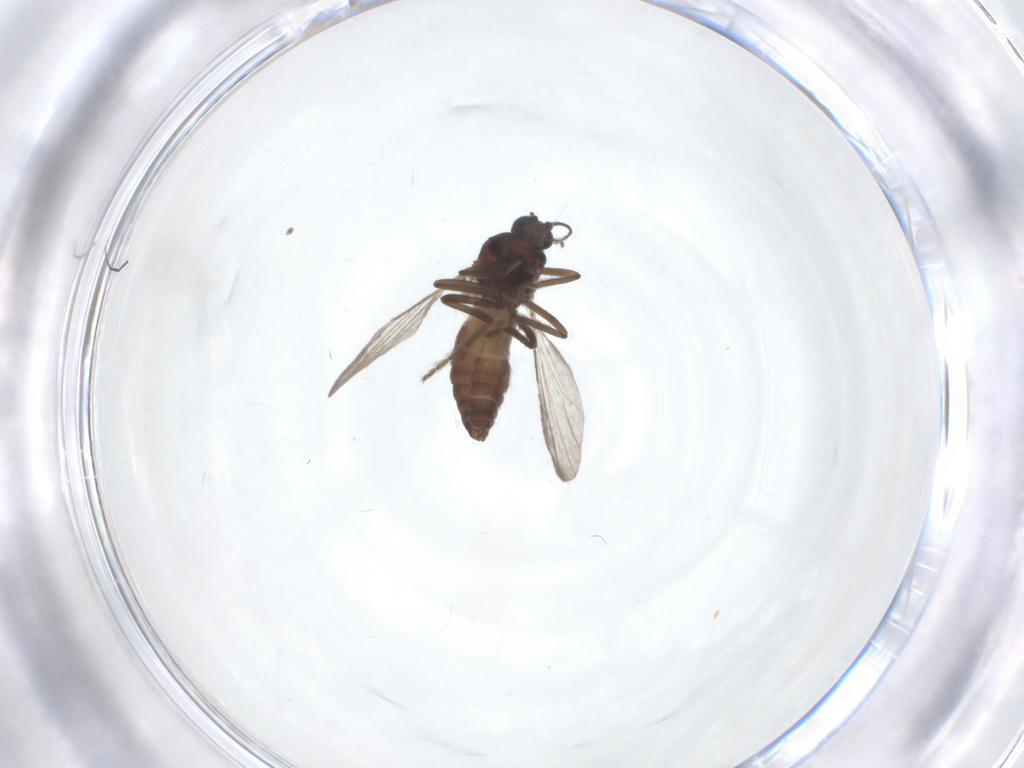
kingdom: Animalia
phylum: Arthropoda
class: Insecta
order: Diptera
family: Ceratopogonidae
